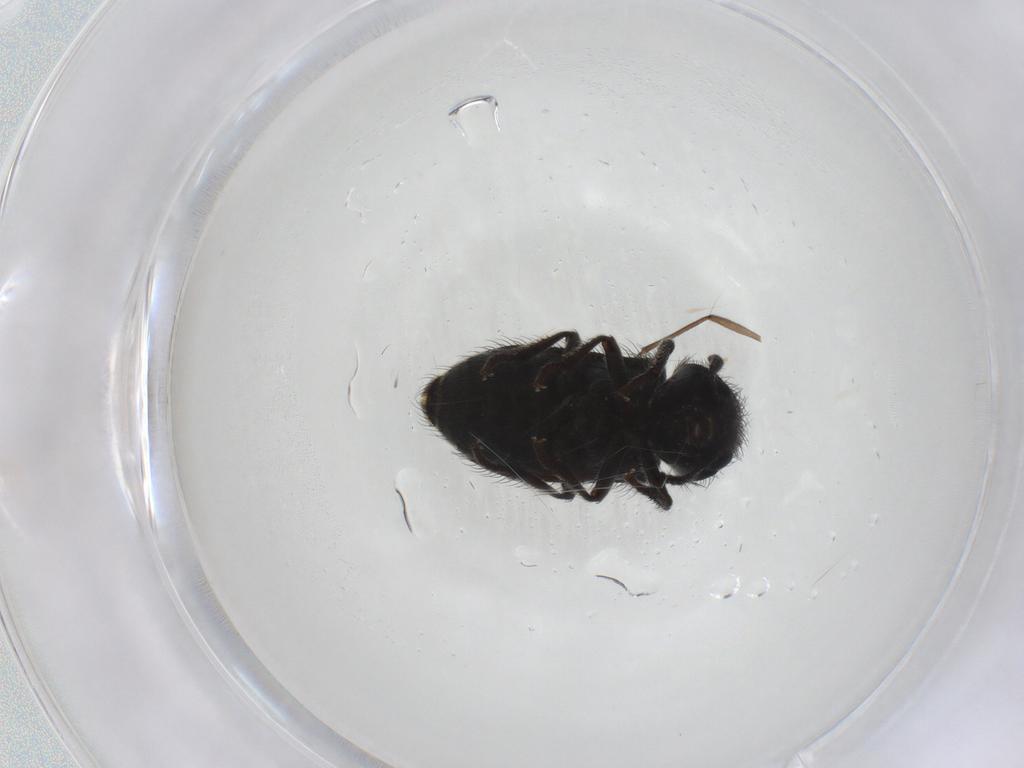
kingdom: Animalia
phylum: Arthropoda
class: Insecta
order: Coleoptera
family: Melyridae
